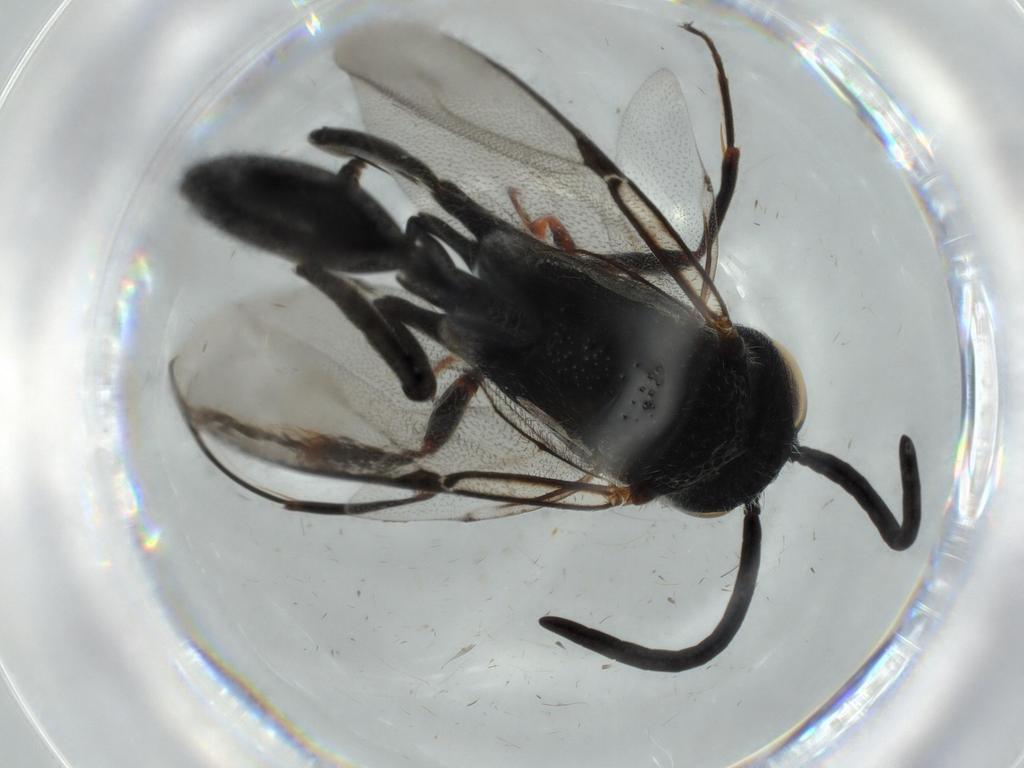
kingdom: Animalia
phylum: Arthropoda
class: Insecta
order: Hymenoptera
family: Evaniidae
